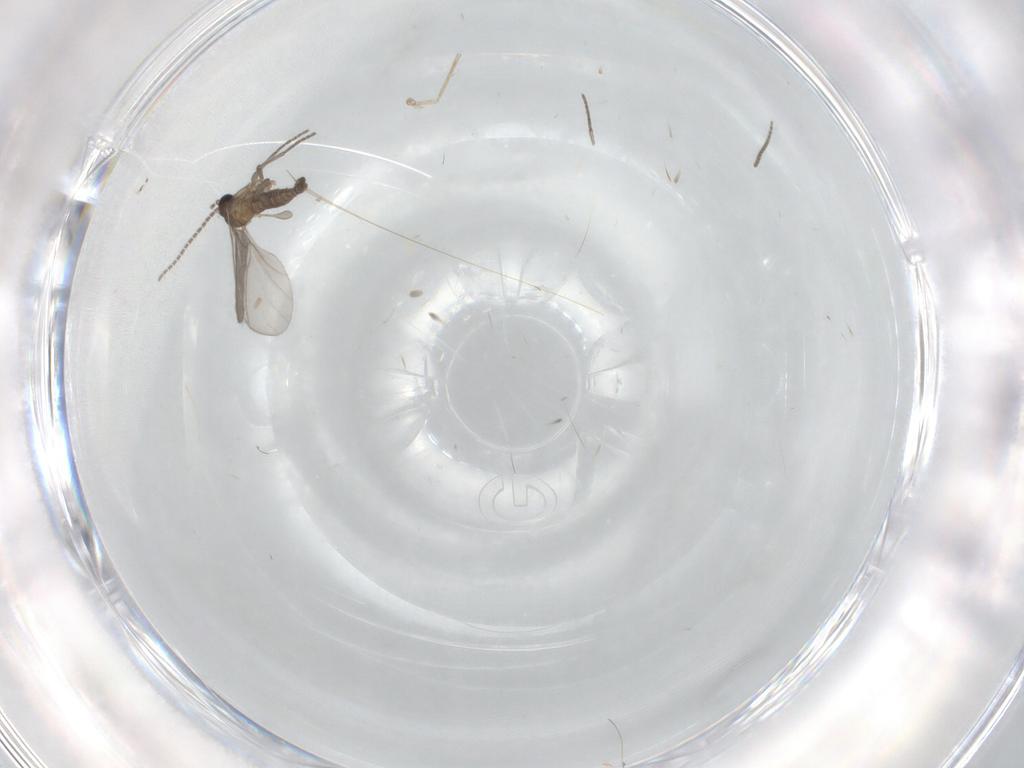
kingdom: Animalia
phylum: Arthropoda
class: Insecta
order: Diptera
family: Sciaridae
